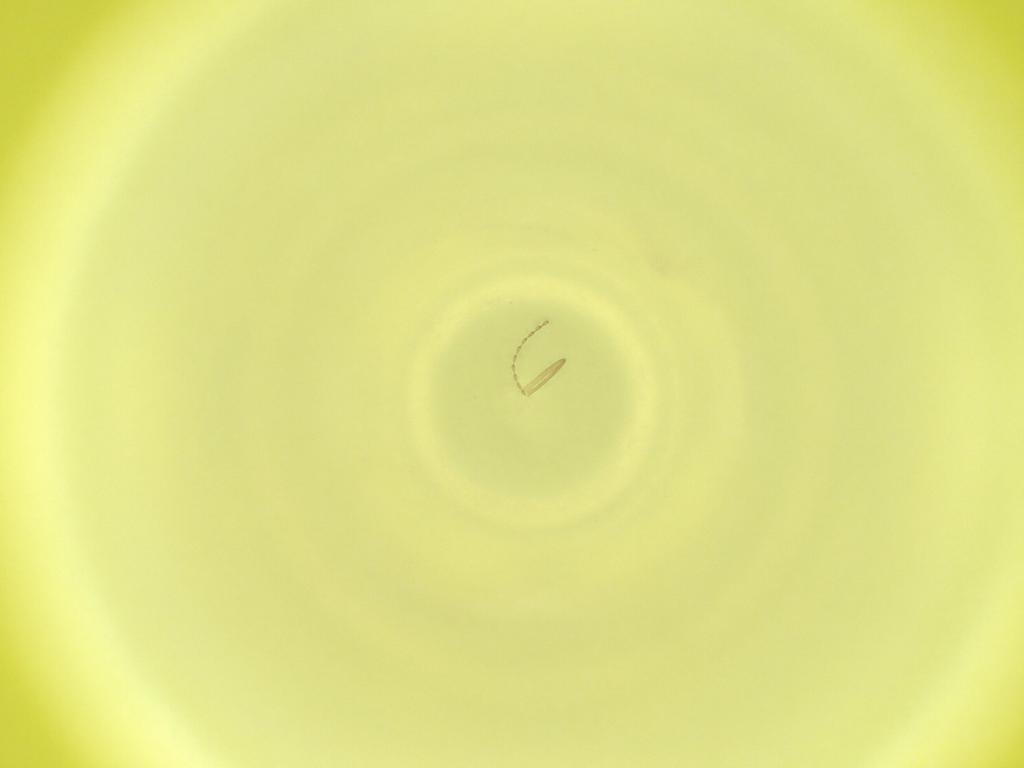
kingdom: Animalia
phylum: Arthropoda
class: Insecta
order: Diptera
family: Cecidomyiidae
